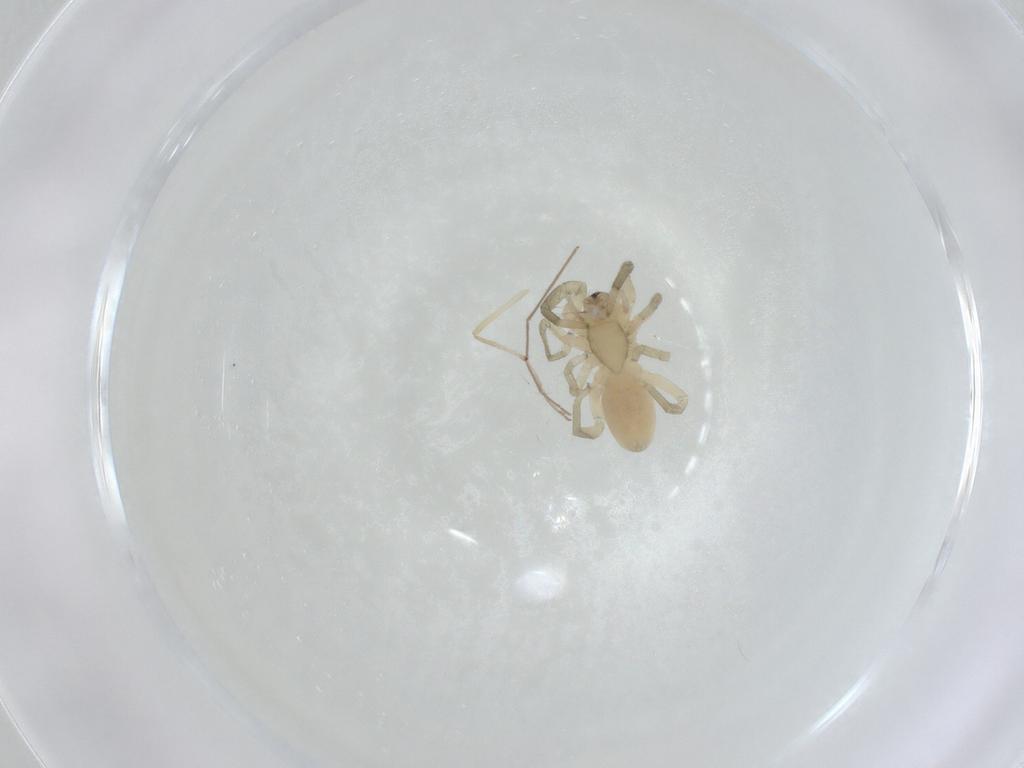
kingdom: Animalia
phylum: Arthropoda
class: Arachnida
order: Araneae
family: Trachelidae
